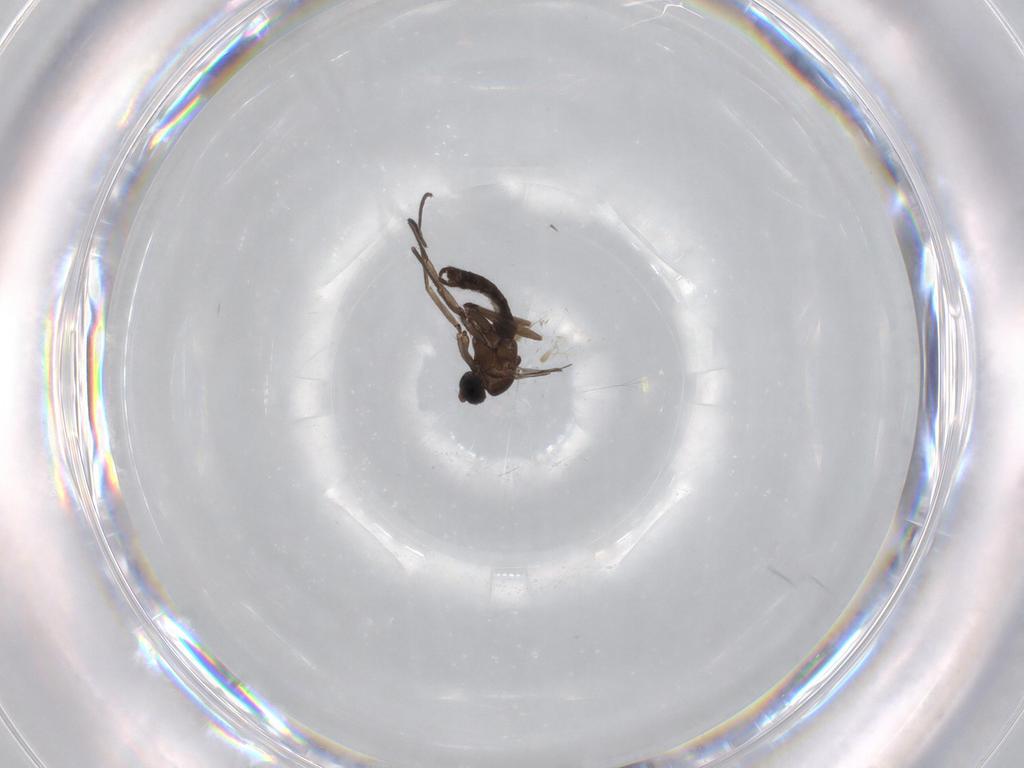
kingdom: Animalia
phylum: Arthropoda
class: Insecta
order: Diptera
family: Sciaridae
